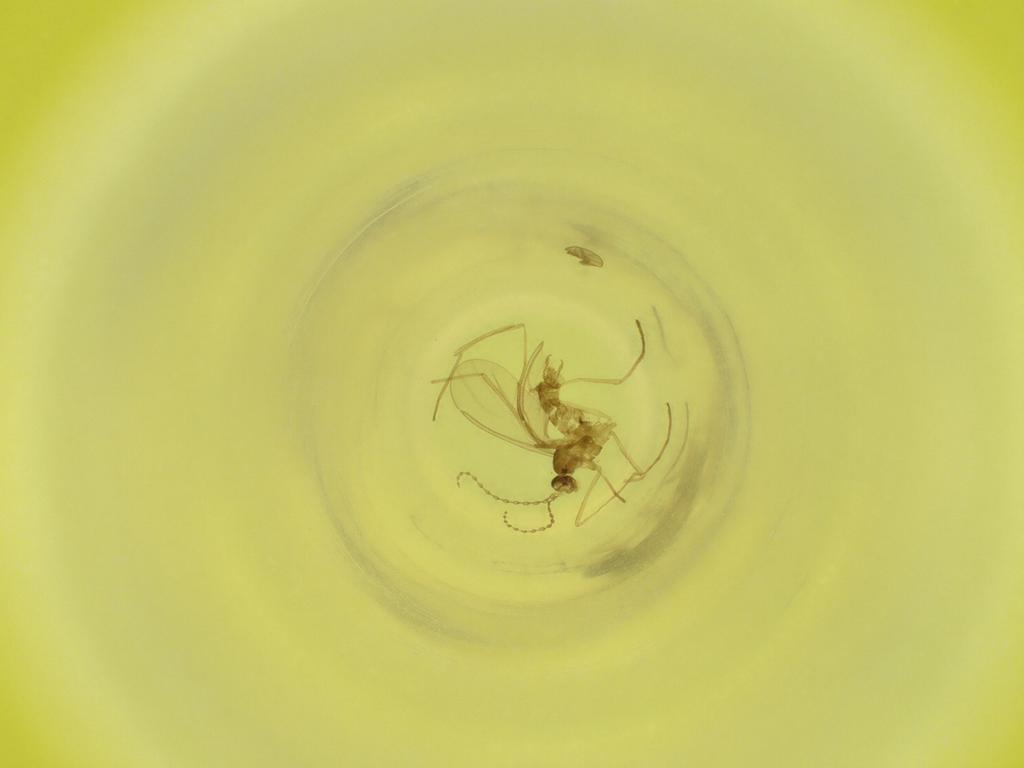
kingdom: Animalia
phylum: Arthropoda
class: Insecta
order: Diptera
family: Cecidomyiidae
